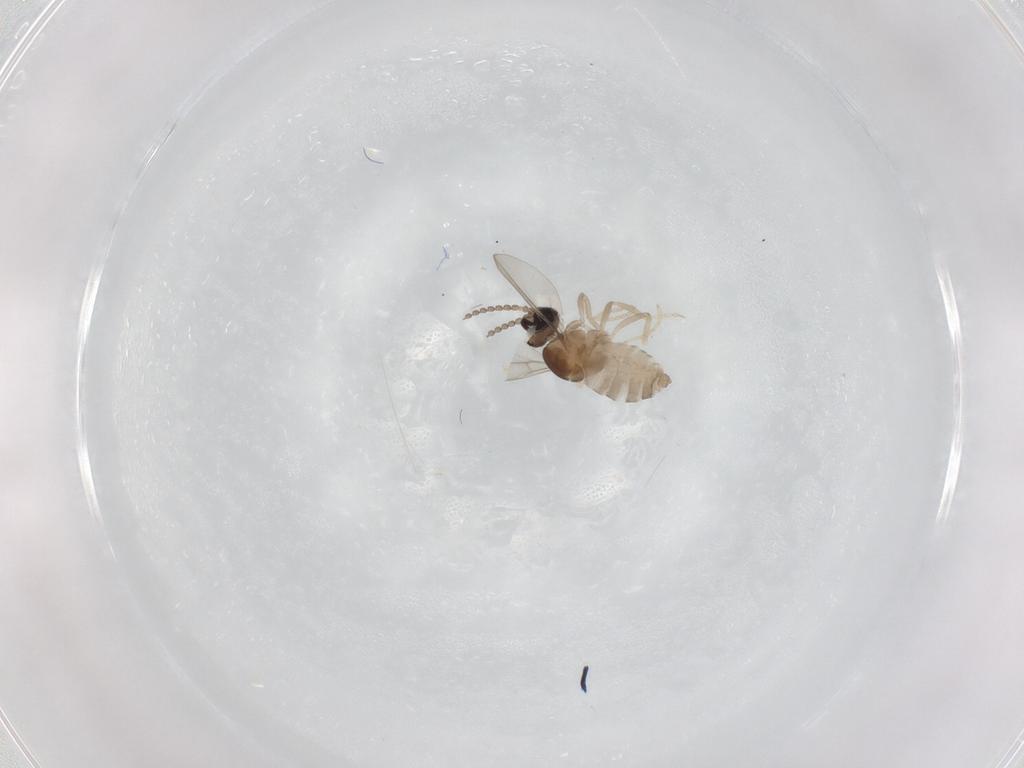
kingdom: Animalia
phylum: Arthropoda
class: Insecta
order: Diptera
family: Cecidomyiidae
